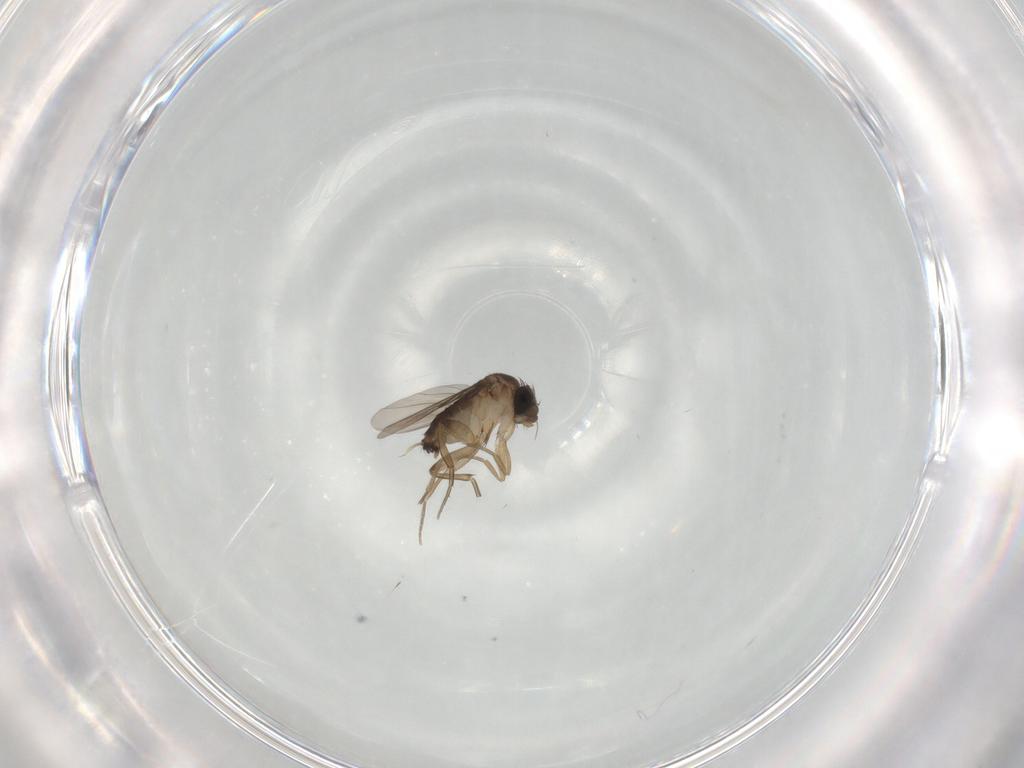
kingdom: Animalia
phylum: Arthropoda
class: Insecta
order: Diptera
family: Phoridae
